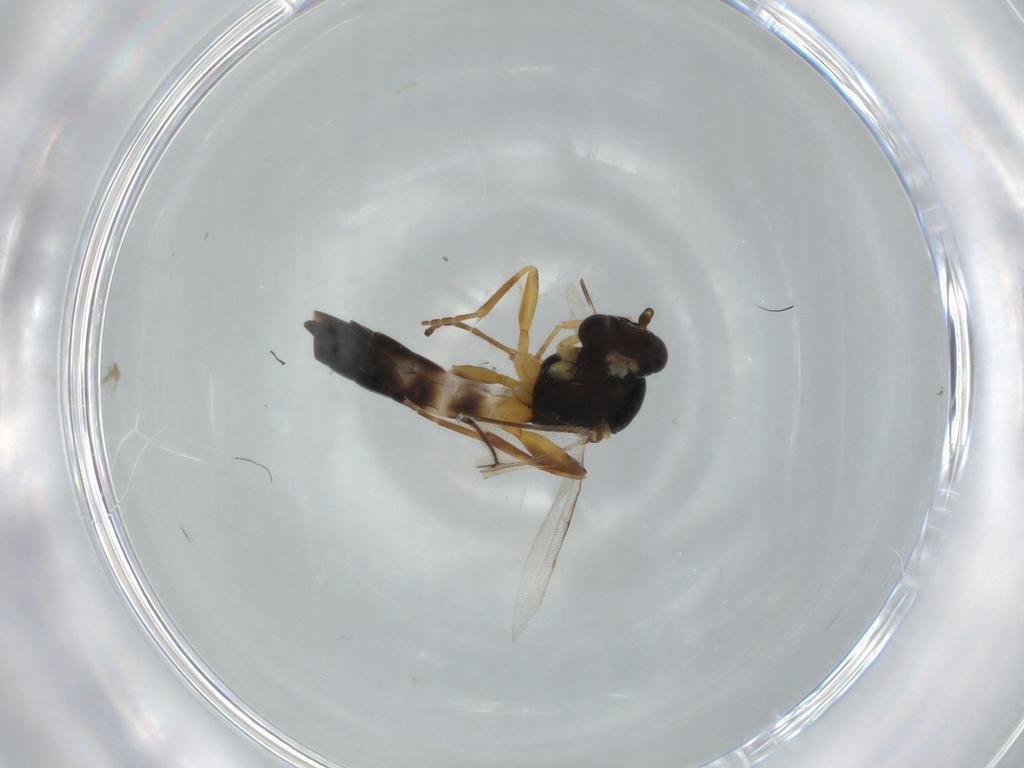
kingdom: Animalia
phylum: Arthropoda
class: Insecta
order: Hymenoptera
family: Braconidae
